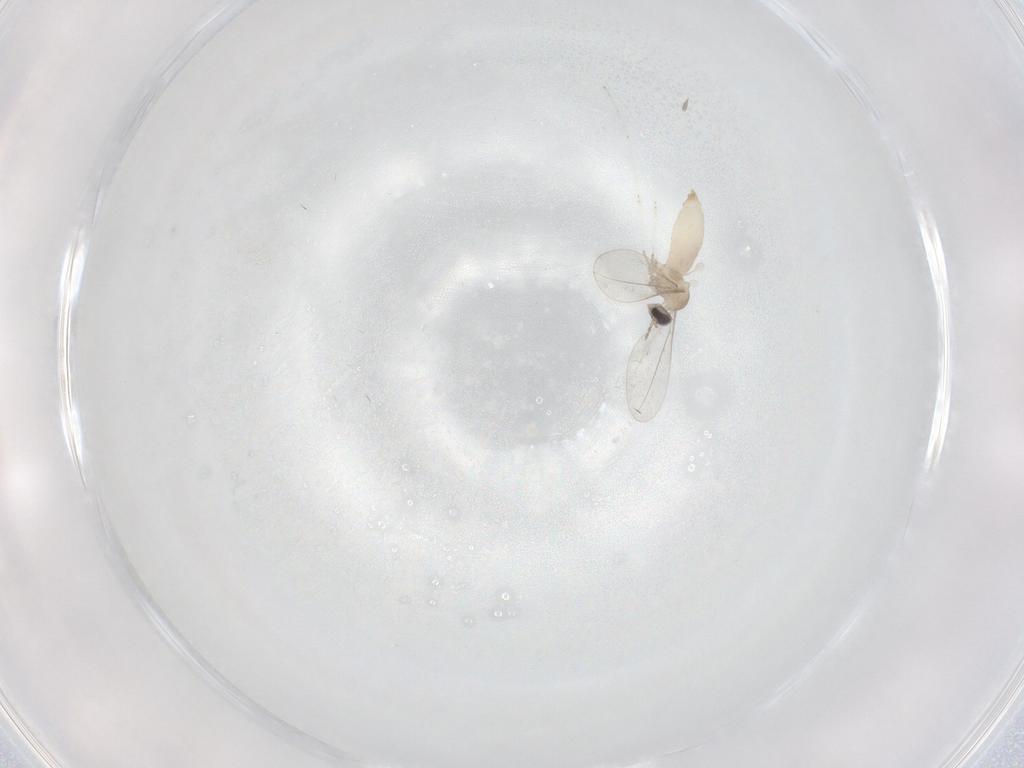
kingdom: Animalia
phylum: Arthropoda
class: Insecta
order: Diptera
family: Cecidomyiidae
